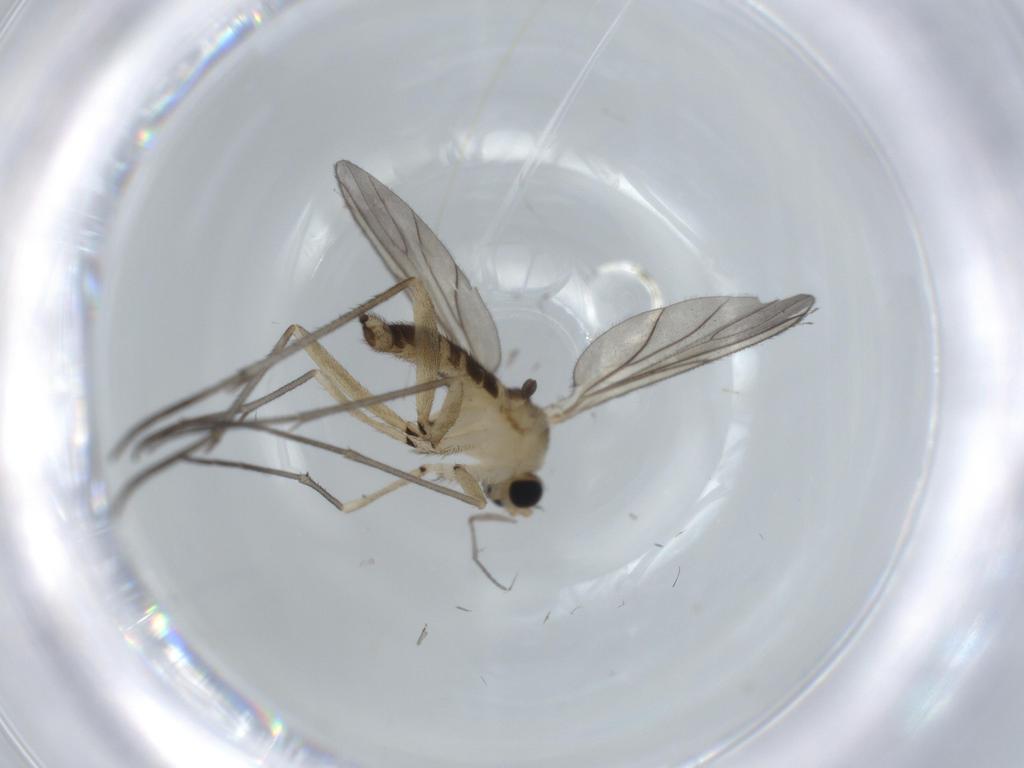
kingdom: Animalia
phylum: Arthropoda
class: Insecta
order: Diptera
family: Sciaridae
